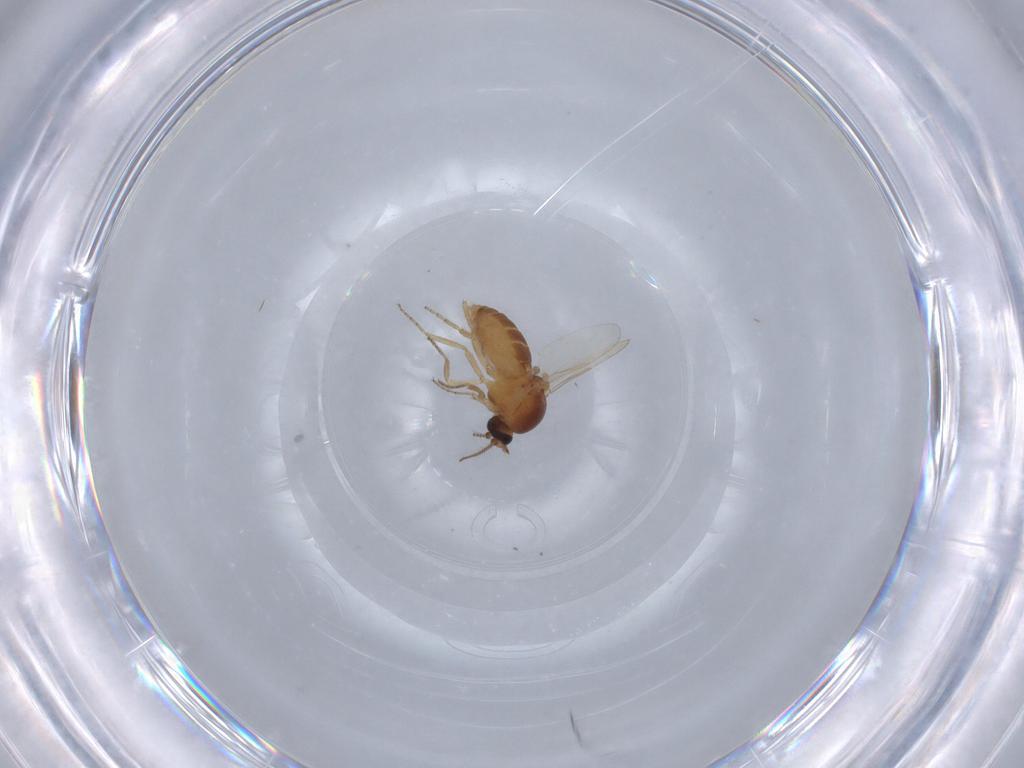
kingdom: Animalia
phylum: Arthropoda
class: Insecta
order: Diptera
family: Ceratopogonidae
